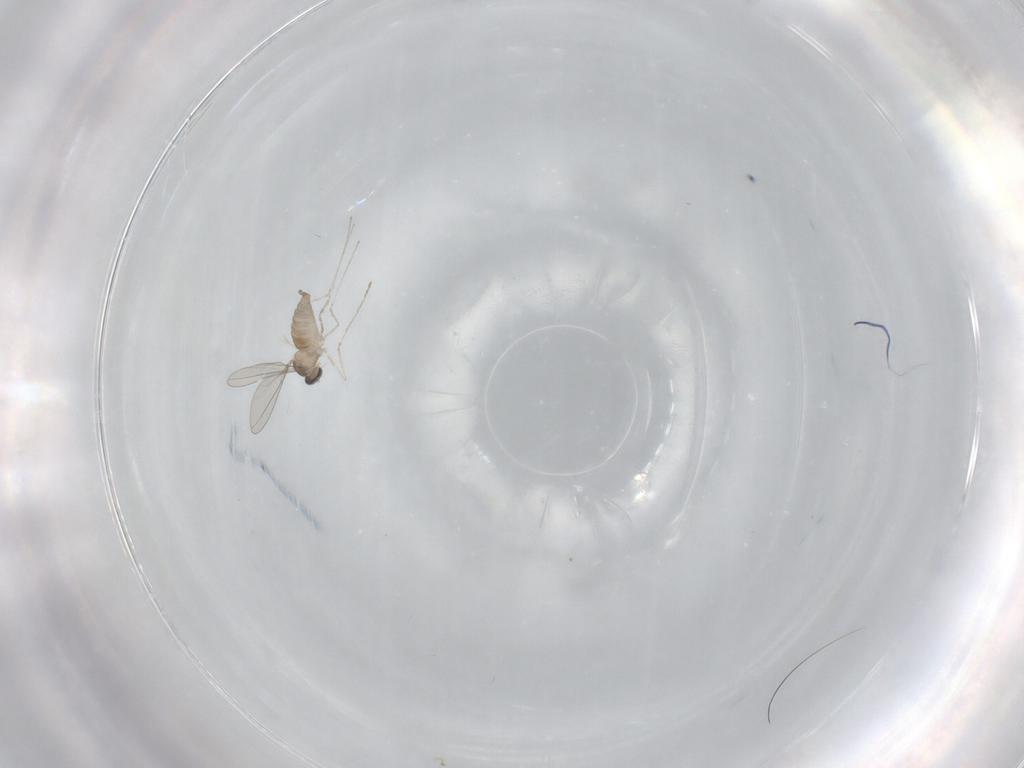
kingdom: Animalia
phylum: Arthropoda
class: Insecta
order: Diptera
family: Phoridae
